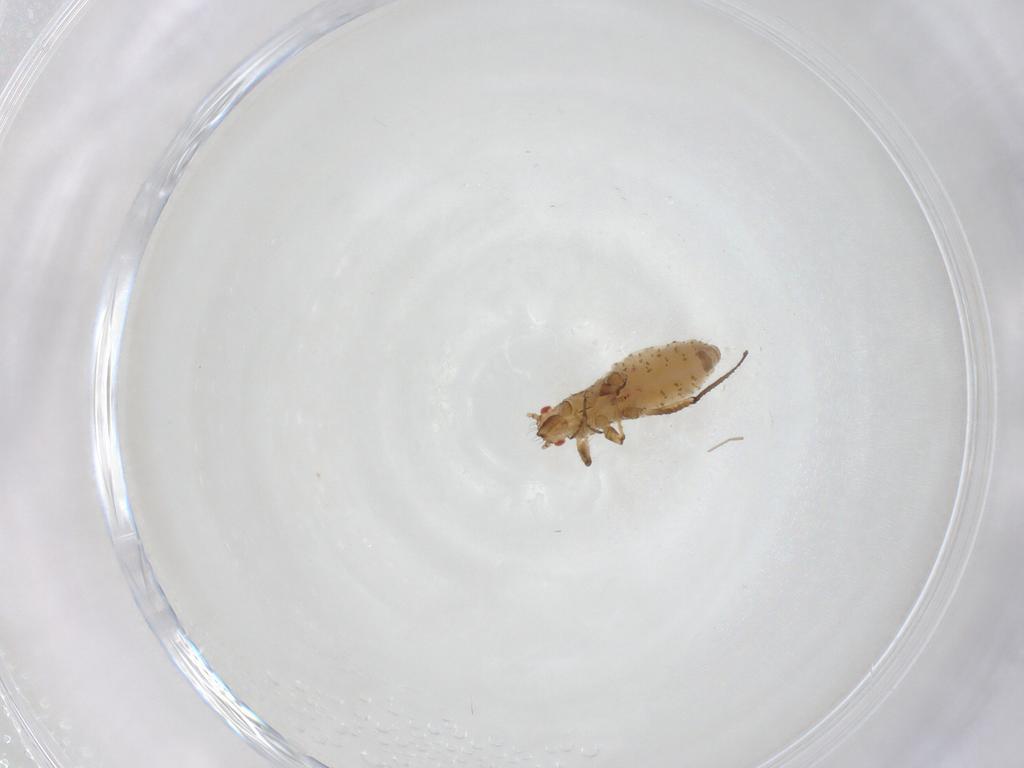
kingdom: Animalia
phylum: Arthropoda
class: Insecta
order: Hemiptera
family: Aphididae
